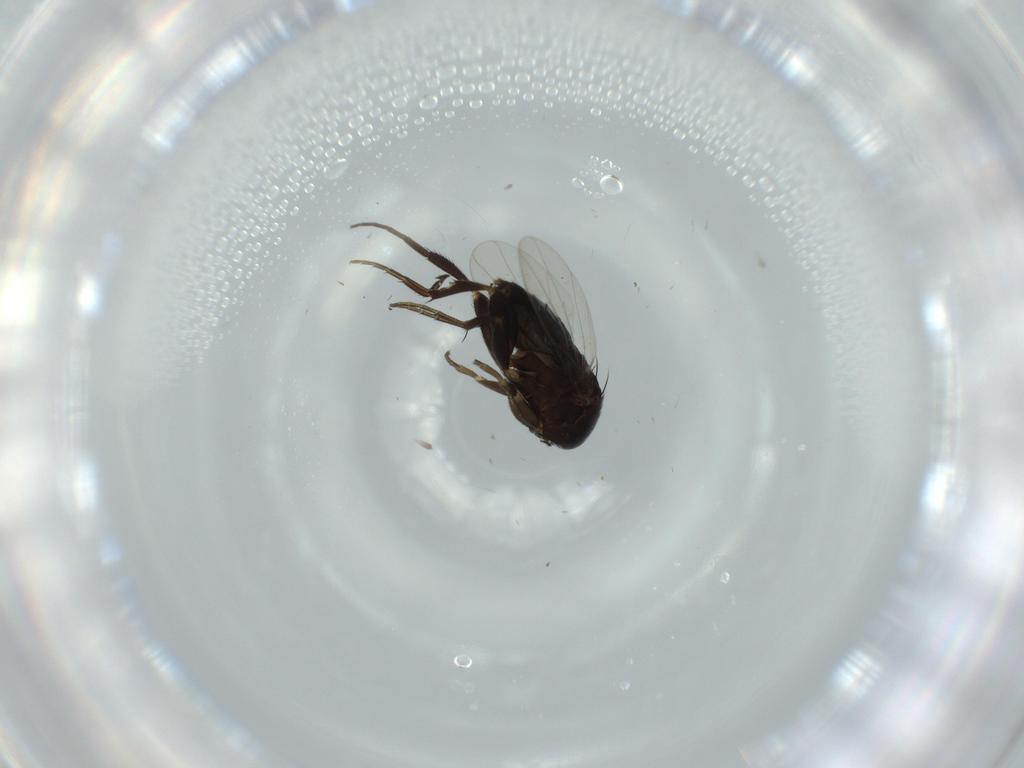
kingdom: Animalia
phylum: Arthropoda
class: Insecta
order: Diptera
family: Phoridae
